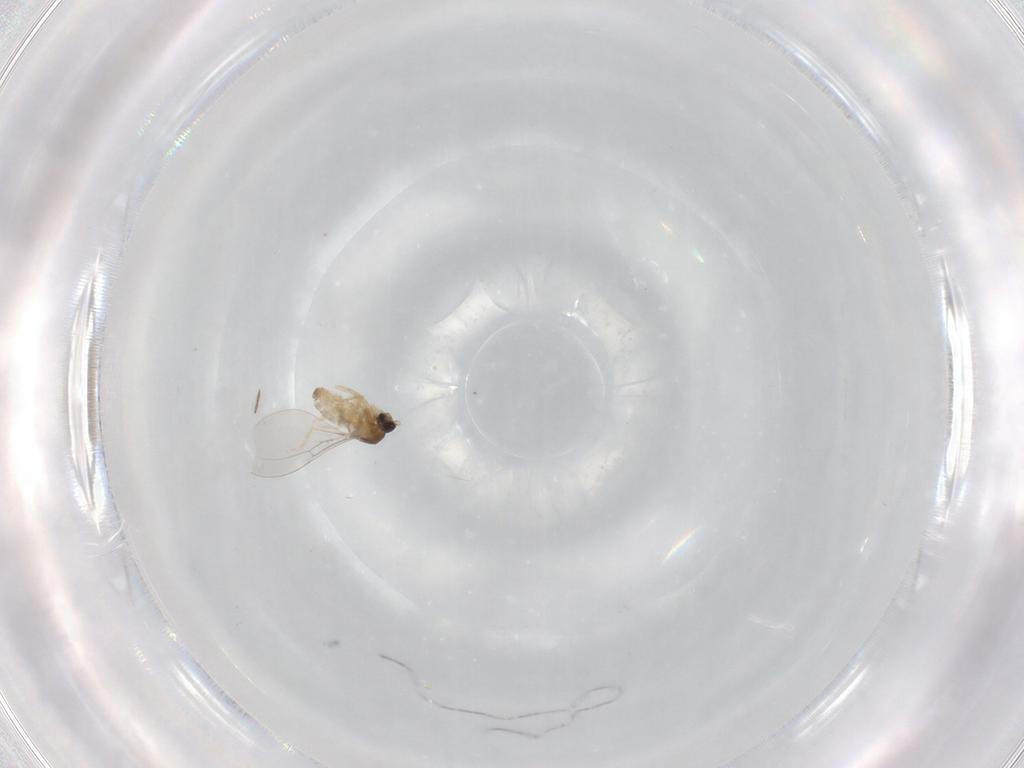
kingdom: Animalia
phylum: Arthropoda
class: Insecta
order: Diptera
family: Cecidomyiidae
